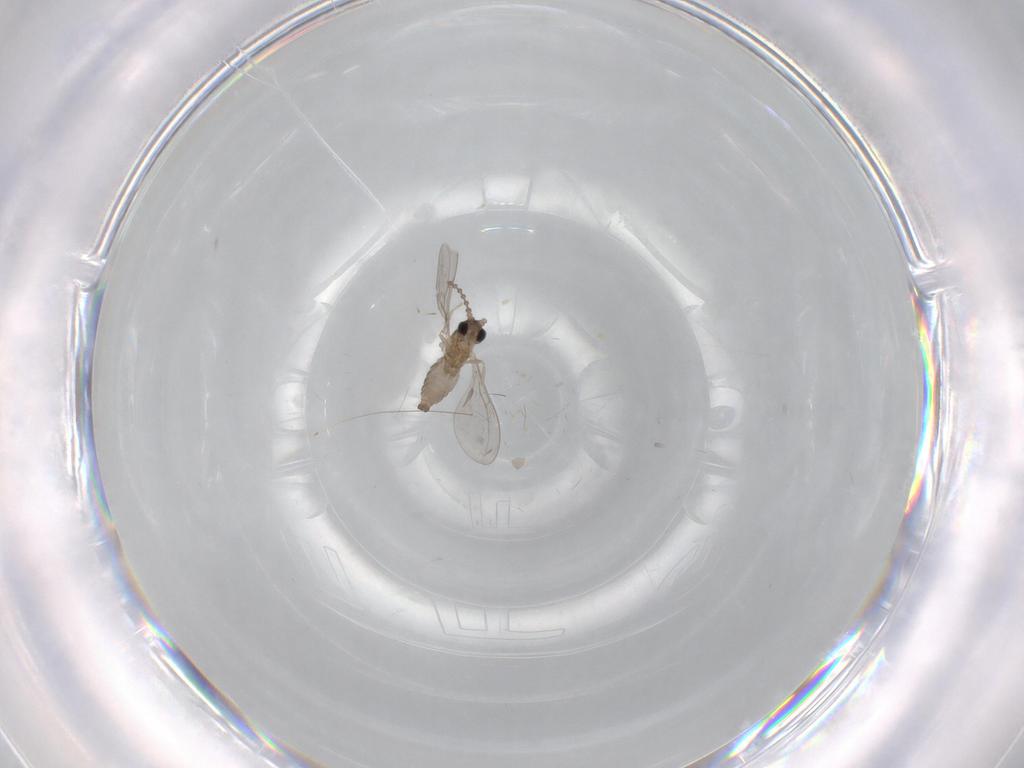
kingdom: Animalia
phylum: Arthropoda
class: Insecta
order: Diptera
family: Cecidomyiidae
